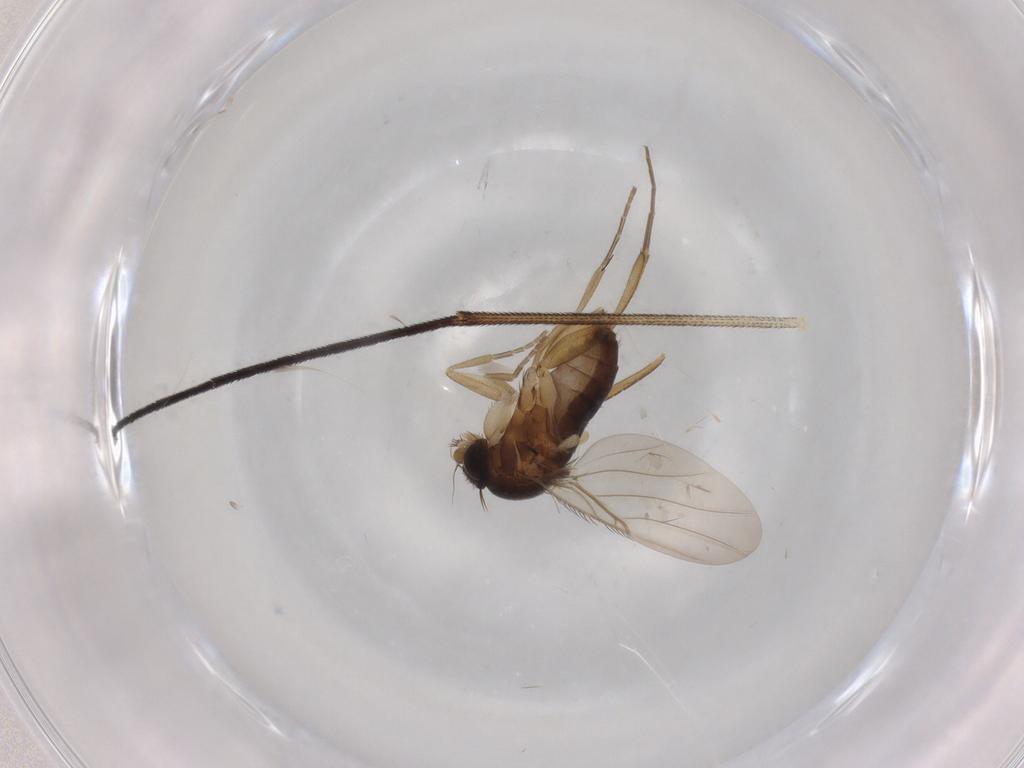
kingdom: Animalia
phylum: Arthropoda
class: Insecta
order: Diptera
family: Phoridae
